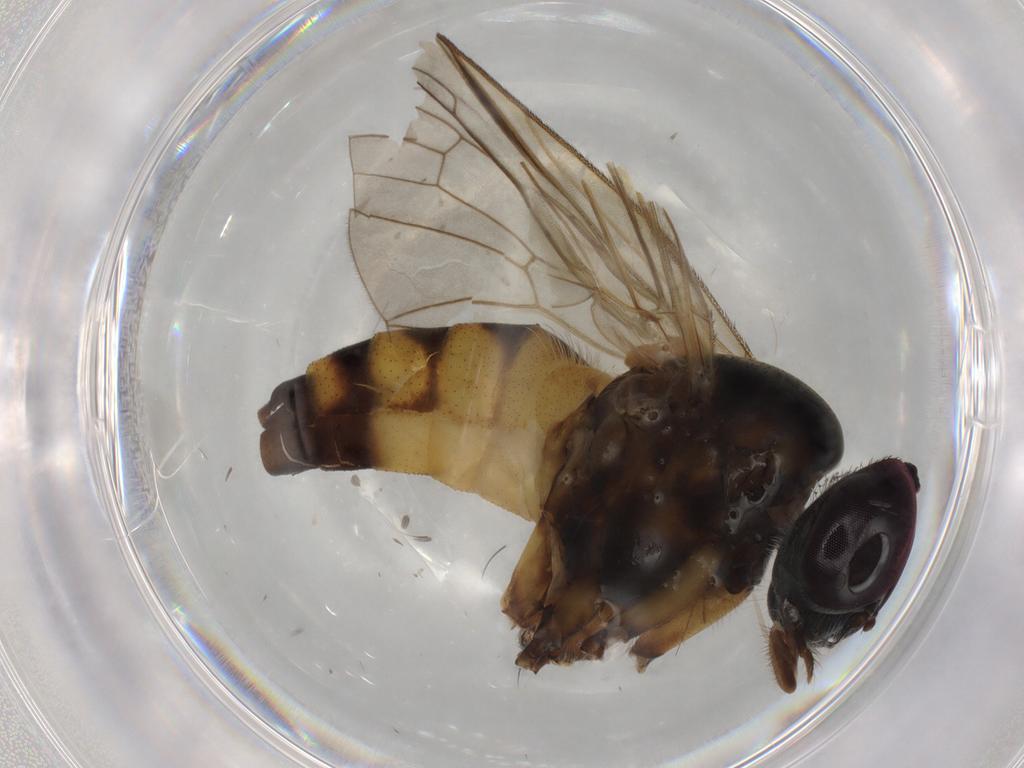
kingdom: Animalia
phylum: Arthropoda
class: Insecta
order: Diptera
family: Rhagionidae
